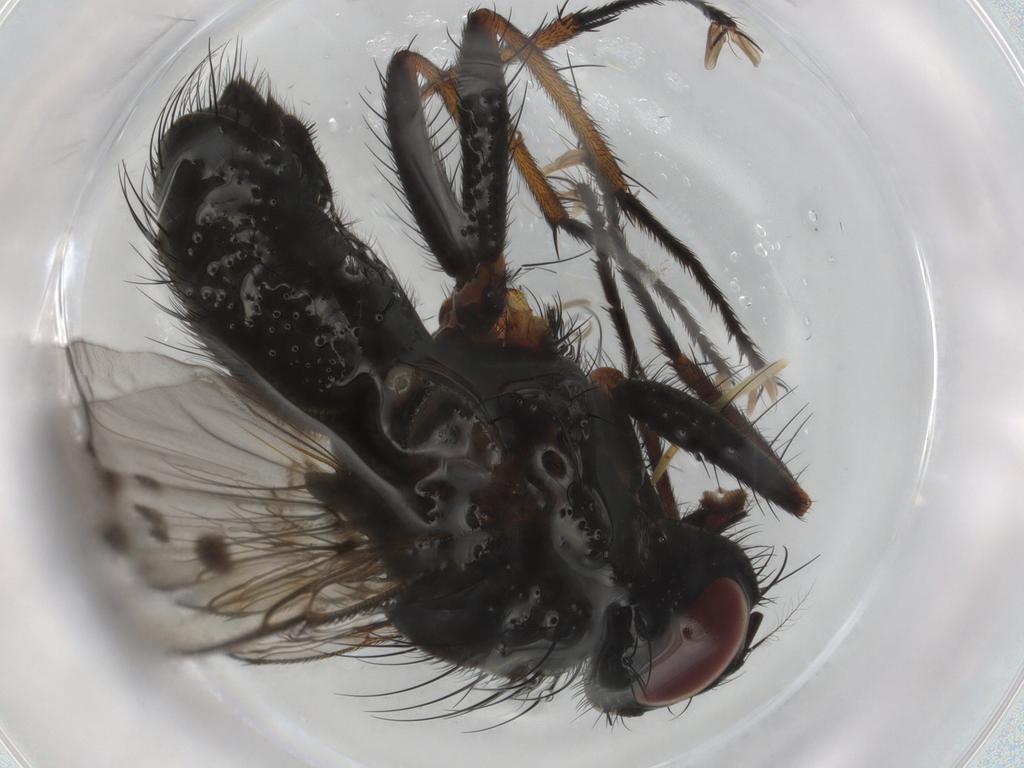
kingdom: Animalia
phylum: Arthropoda
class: Insecta
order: Diptera
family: Muscidae
